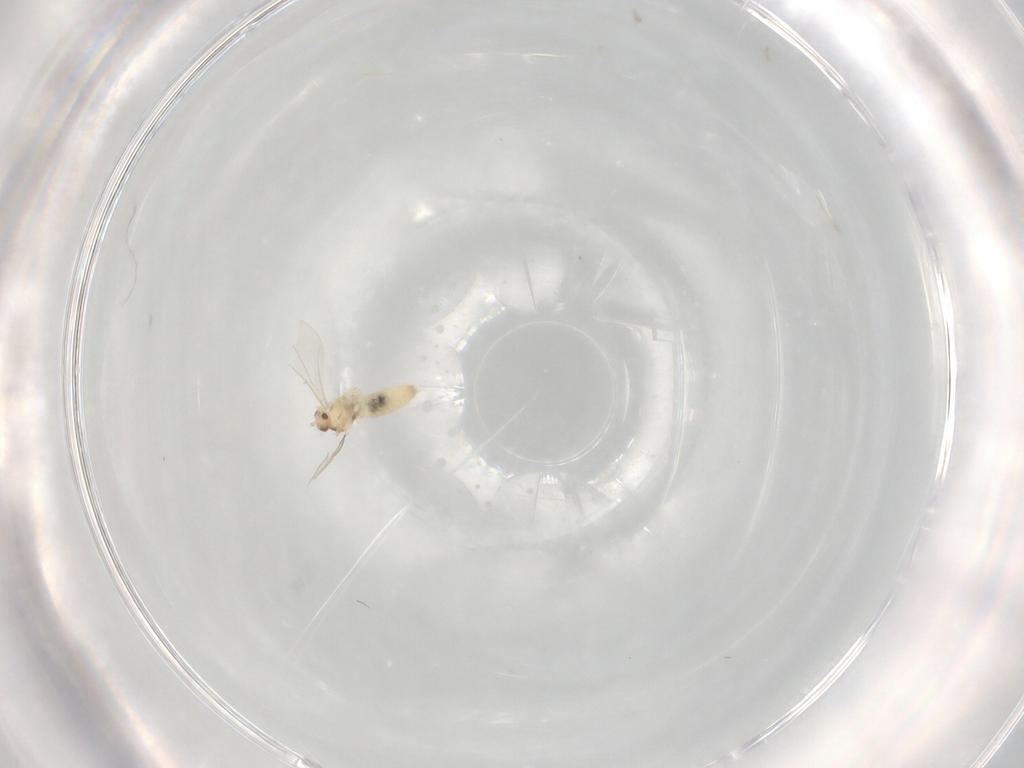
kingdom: Animalia
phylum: Arthropoda
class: Insecta
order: Diptera
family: Cecidomyiidae
